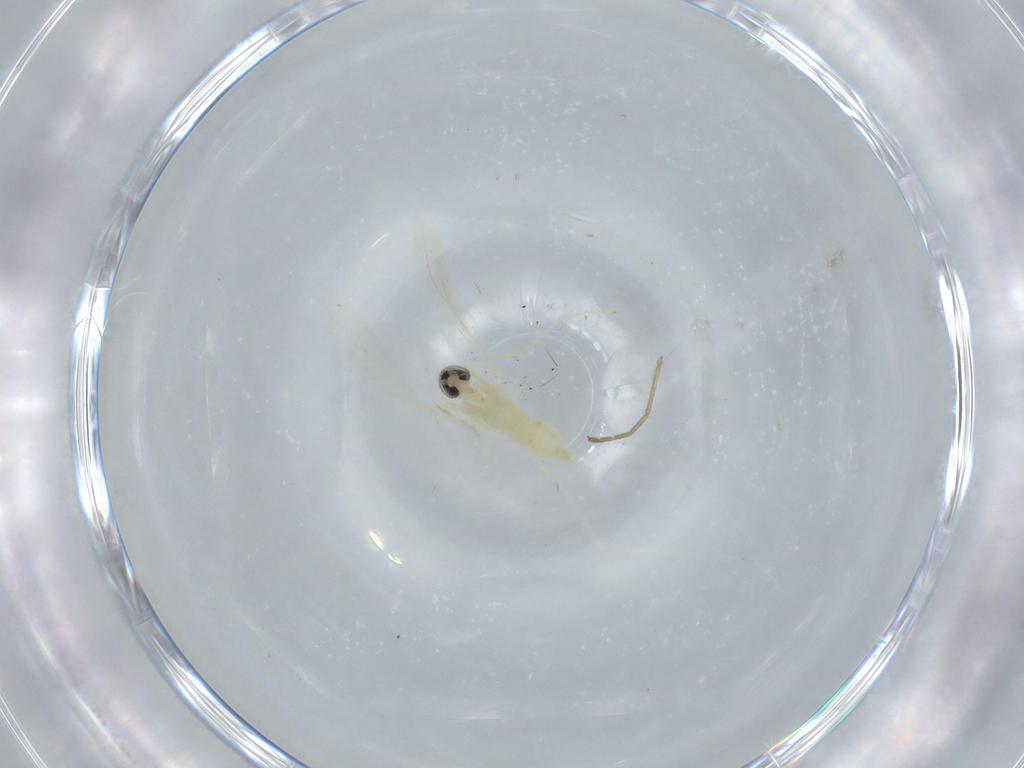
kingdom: Animalia
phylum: Arthropoda
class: Insecta
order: Diptera
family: Cecidomyiidae
